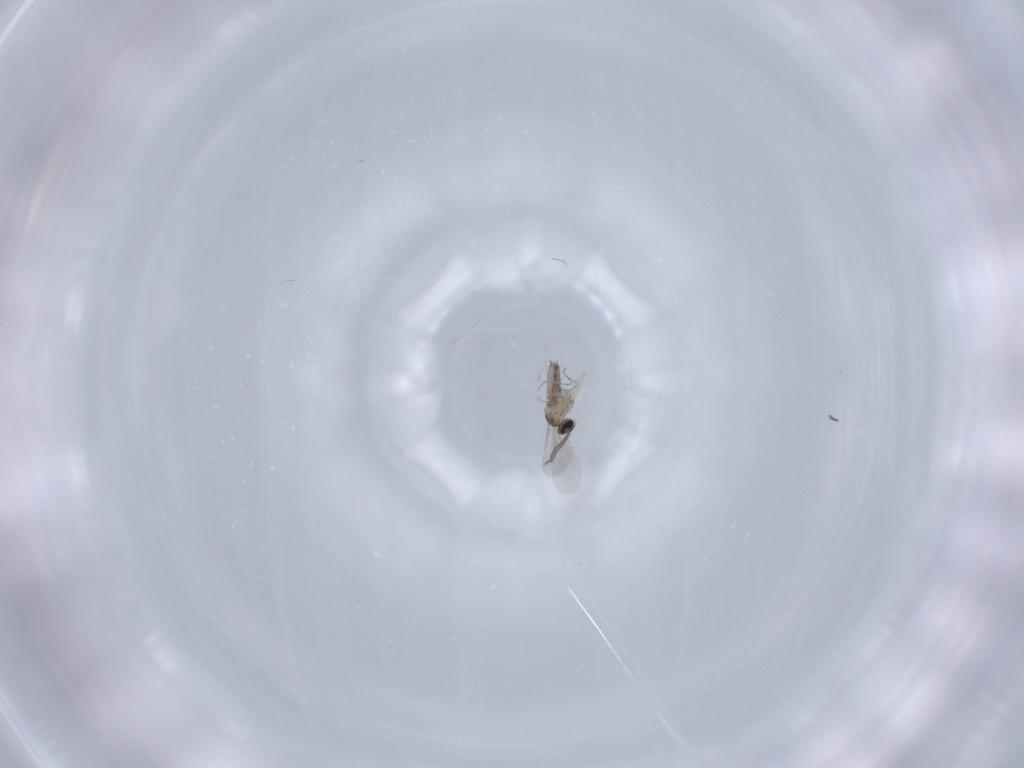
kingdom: Animalia
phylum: Arthropoda
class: Insecta
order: Diptera
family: Cecidomyiidae
